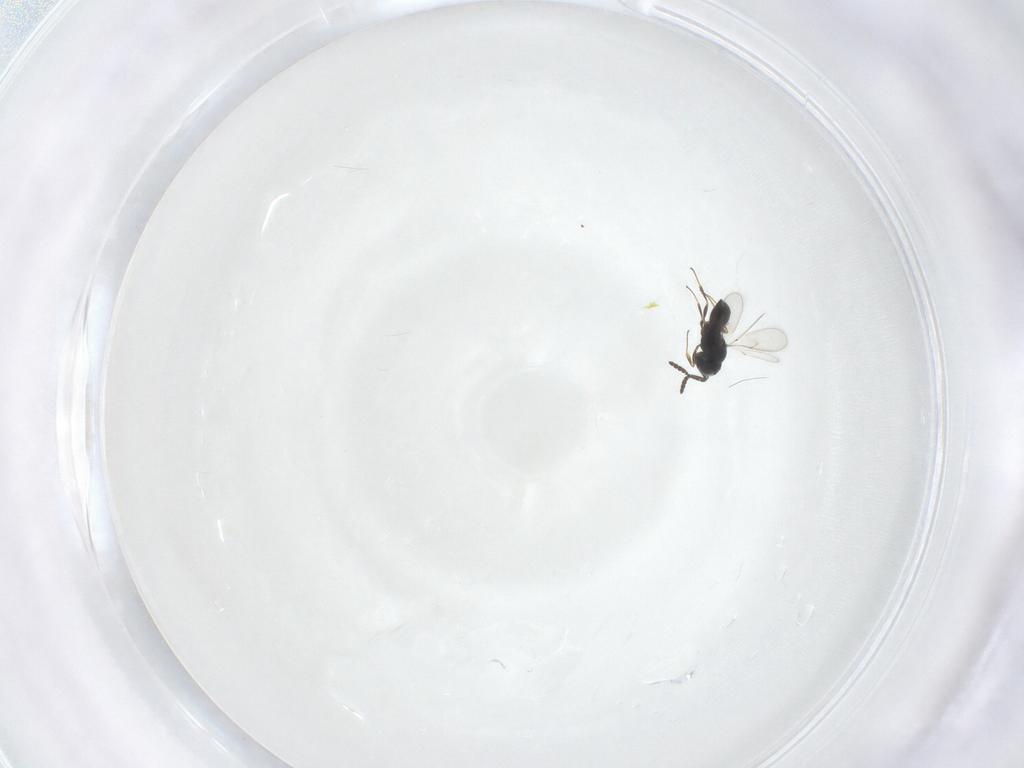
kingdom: Animalia
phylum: Arthropoda
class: Insecta
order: Hymenoptera
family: Scelionidae
